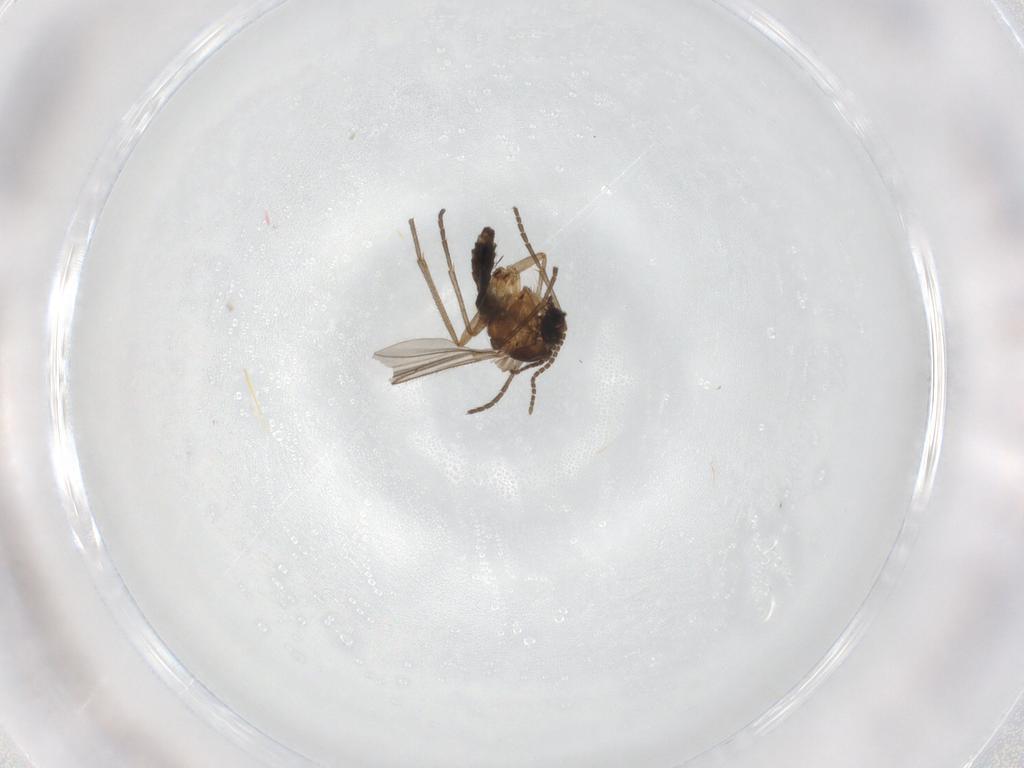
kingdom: Animalia
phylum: Arthropoda
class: Insecta
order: Diptera
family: Sciaridae
